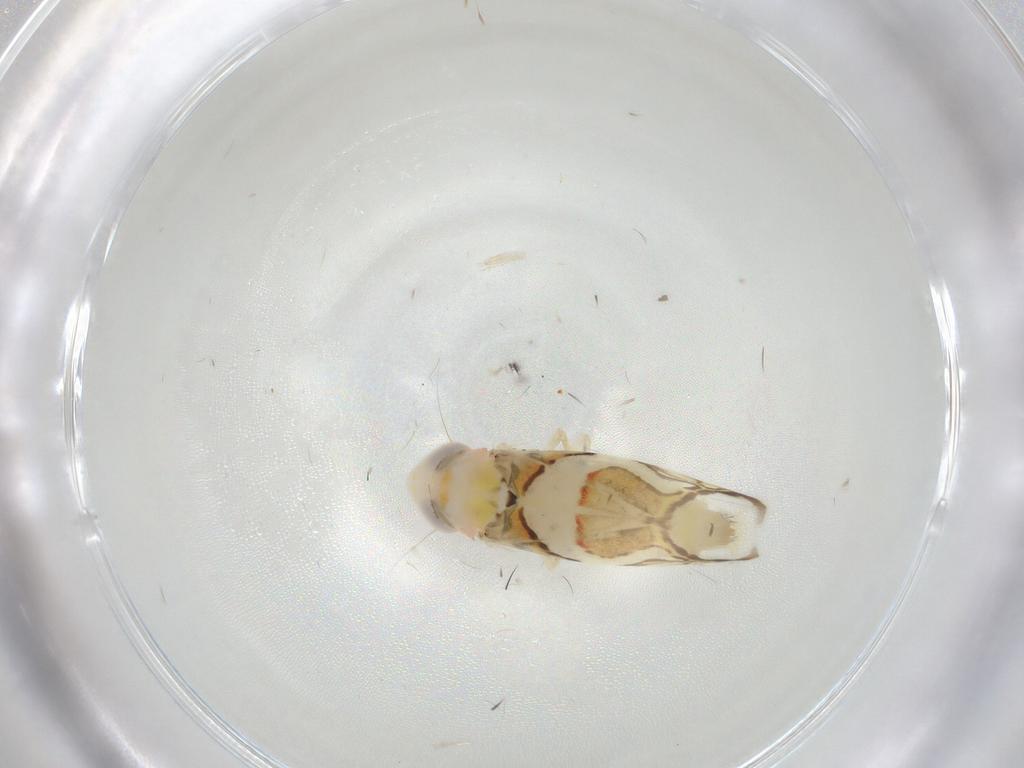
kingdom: Animalia
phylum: Arthropoda
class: Insecta
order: Hemiptera
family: Cicadellidae
